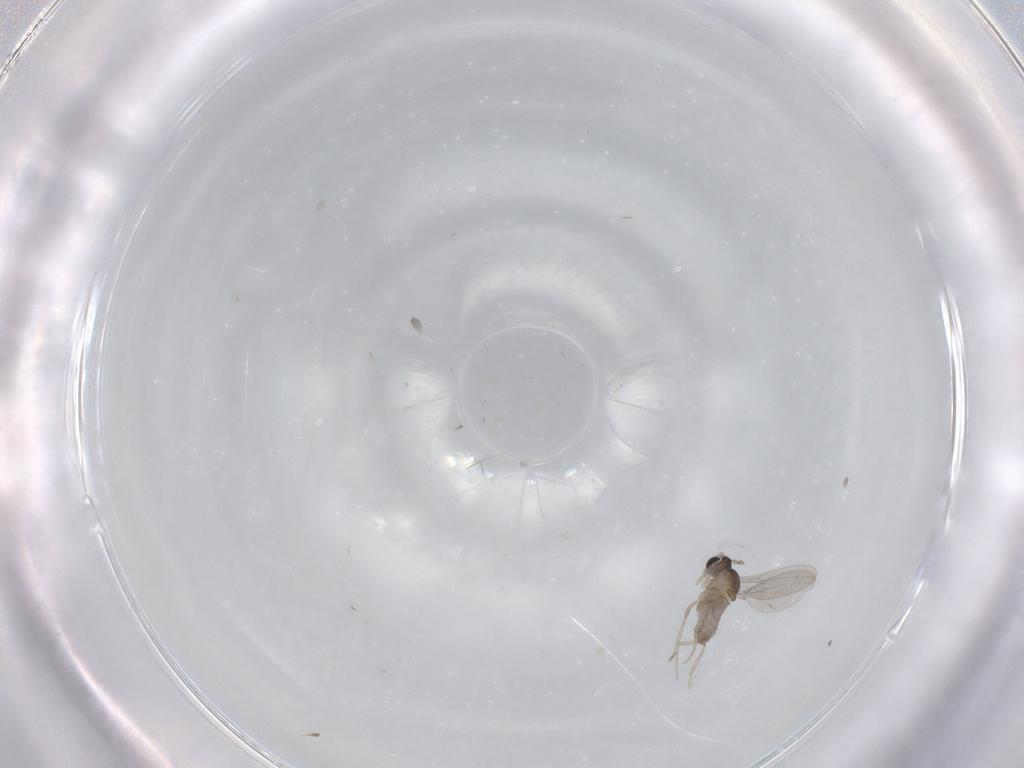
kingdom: Animalia
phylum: Arthropoda
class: Insecta
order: Diptera
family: Cecidomyiidae
